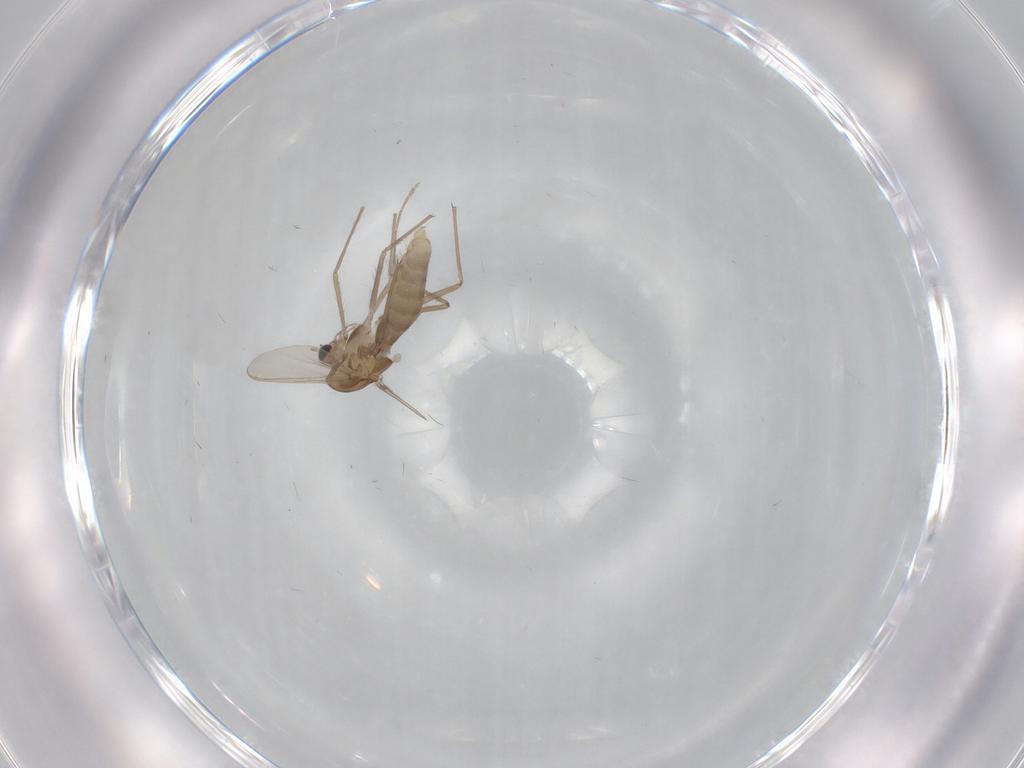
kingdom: Animalia
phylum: Arthropoda
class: Insecta
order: Diptera
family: Chironomidae
